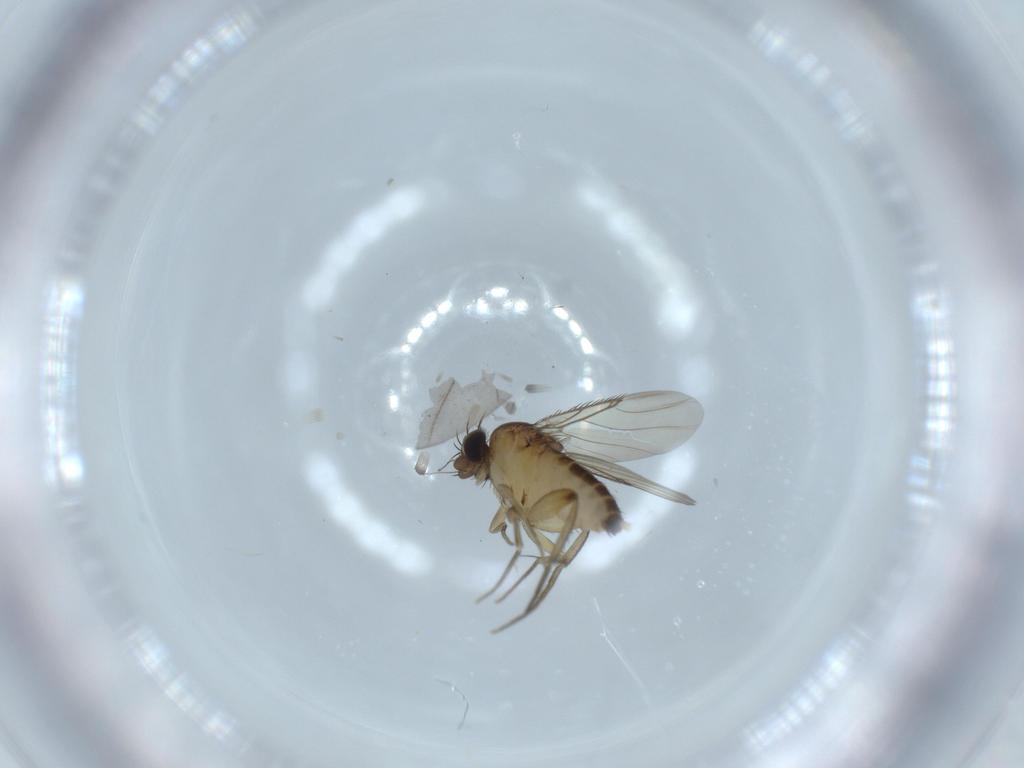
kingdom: Animalia
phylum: Arthropoda
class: Insecta
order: Diptera
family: Phoridae
